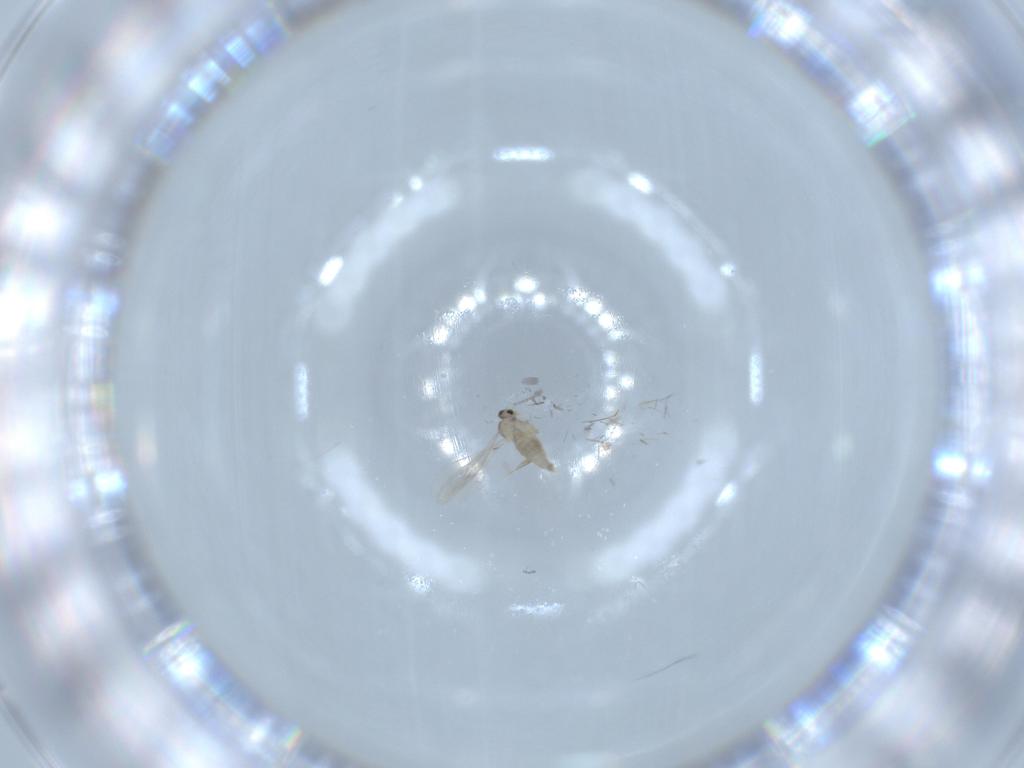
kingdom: Animalia
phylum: Arthropoda
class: Insecta
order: Diptera
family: Cecidomyiidae
